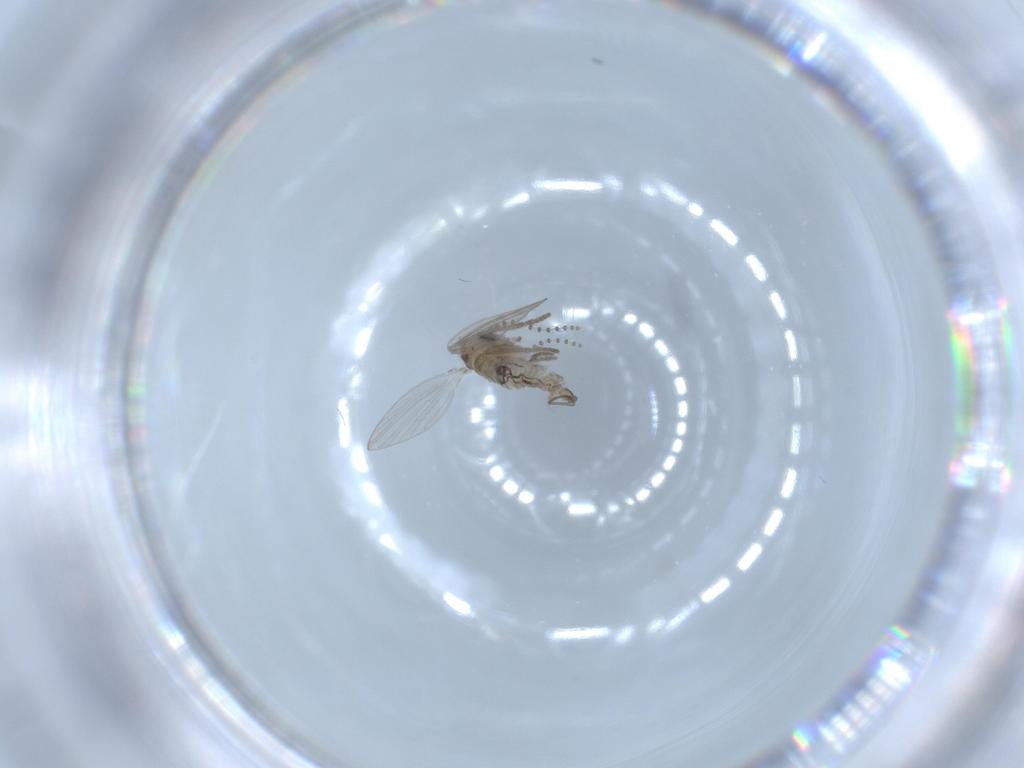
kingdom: Animalia
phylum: Arthropoda
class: Insecta
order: Diptera
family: Psychodidae
